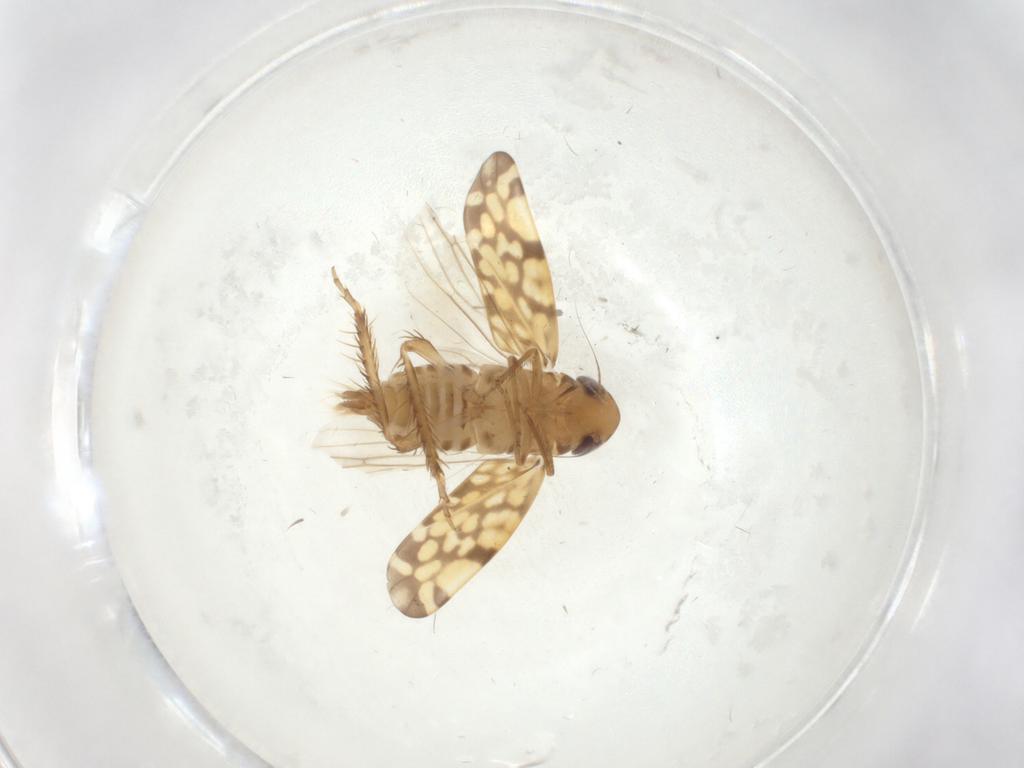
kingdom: Animalia
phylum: Arthropoda
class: Insecta
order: Hemiptera
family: Cicadellidae
